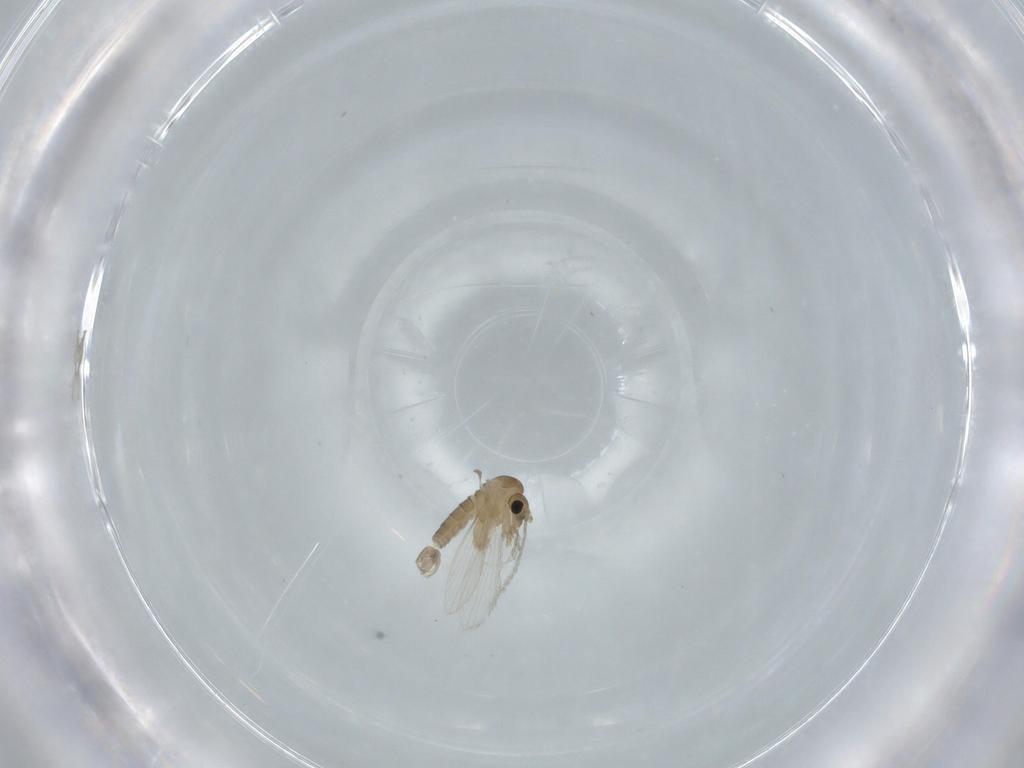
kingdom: Animalia
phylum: Arthropoda
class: Insecta
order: Diptera
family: Psychodidae
